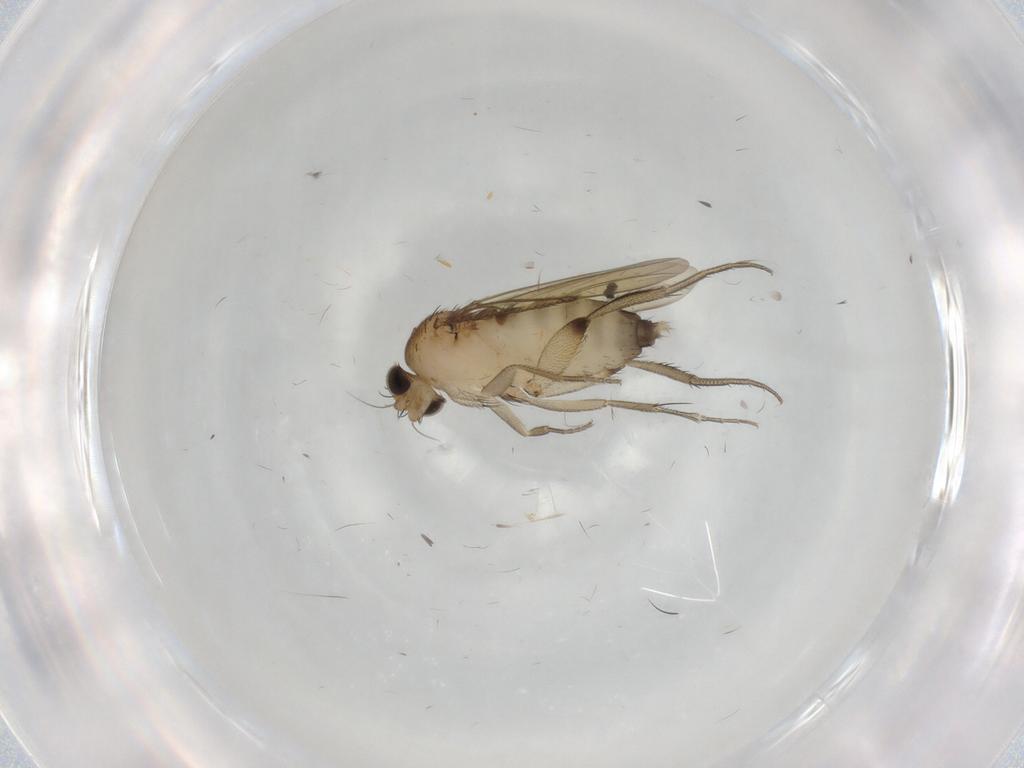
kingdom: Animalia
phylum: Arthropoda
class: Insecta
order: Diptera
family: Phoridae
